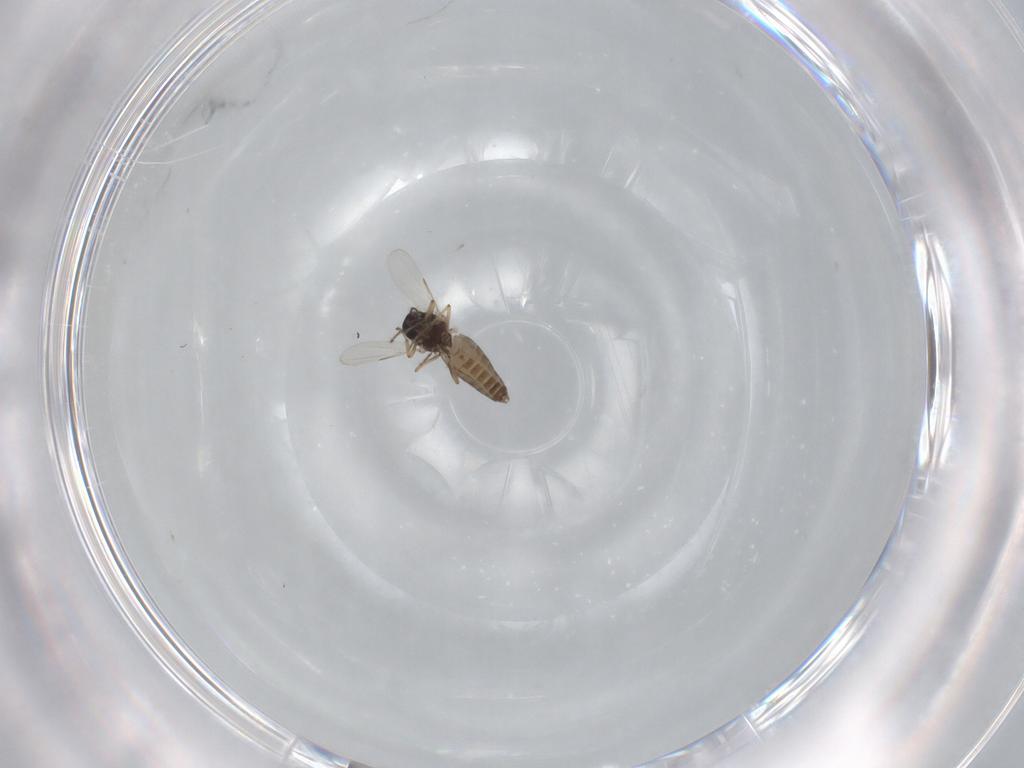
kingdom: Animalia
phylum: Arthropoda
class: Insecta
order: Diptera
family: Ceratopogonidae
